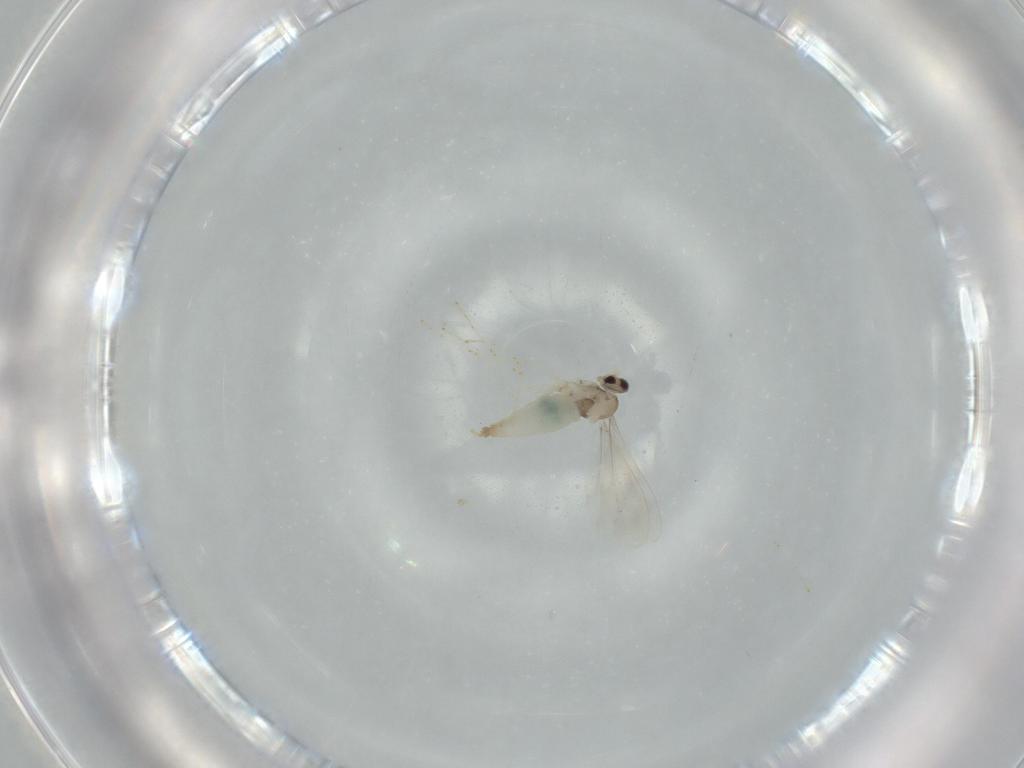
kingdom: Animalia
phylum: Arthropoda
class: Insecta
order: Diptera
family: Cecidomyiidae
